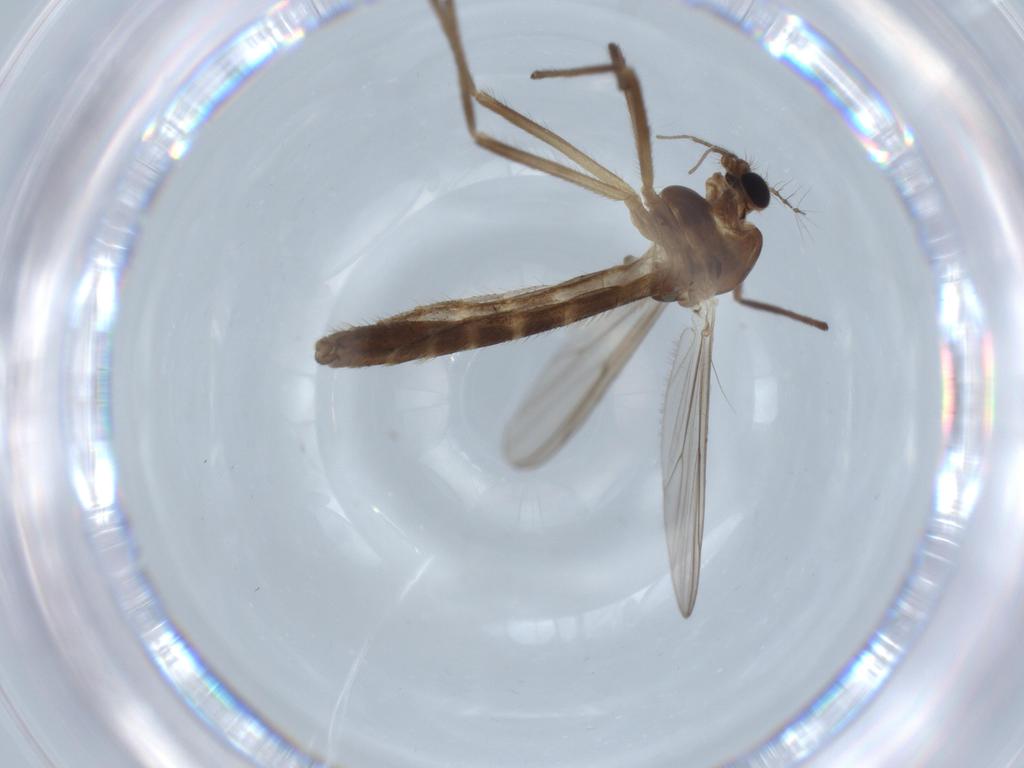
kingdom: Animalia
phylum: Arthropoda
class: Insecta
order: Diptera
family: Chironomidae
